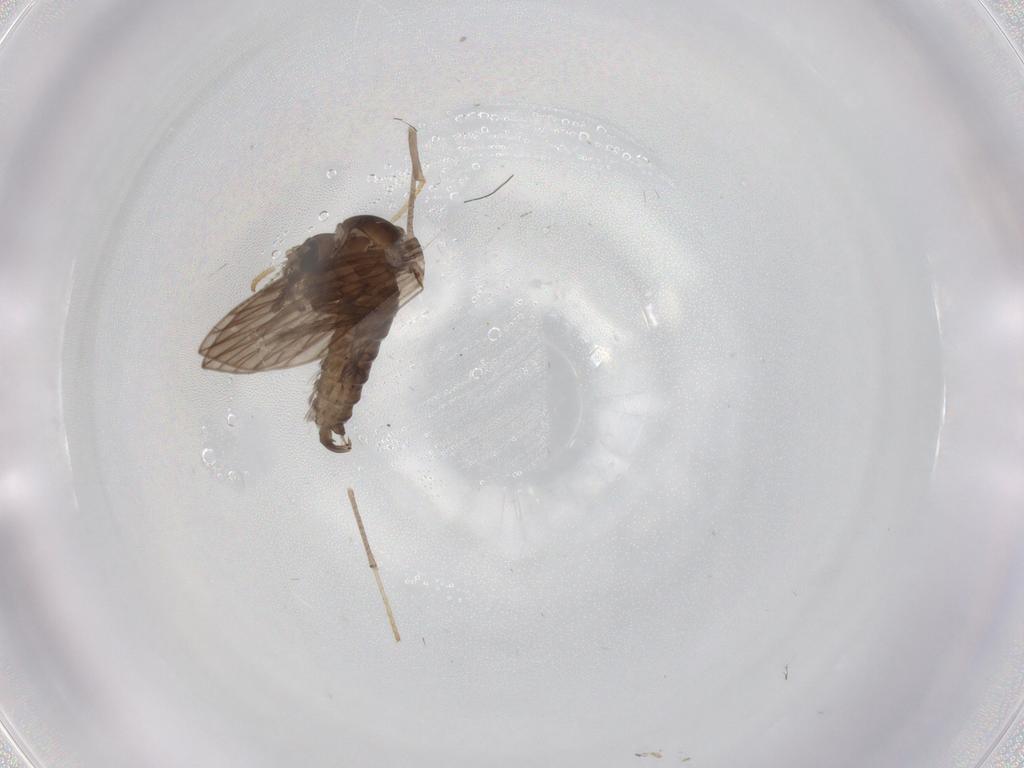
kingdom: Animalia
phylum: Arthropoda
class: Insecta
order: Diptera
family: Psychodidae
